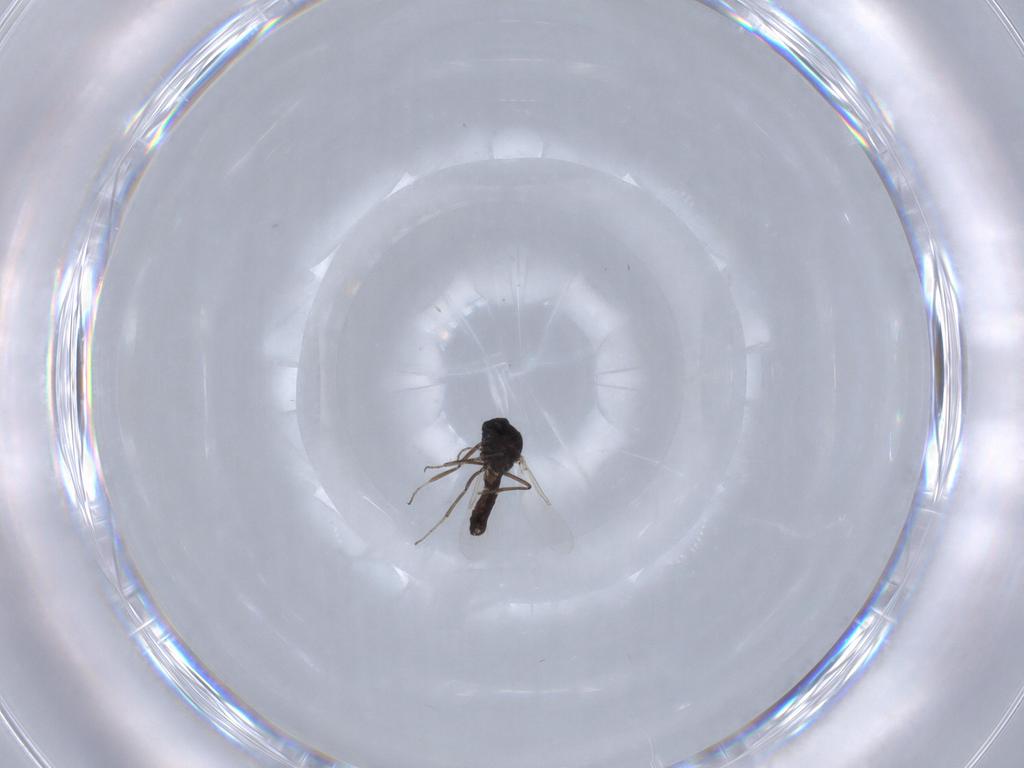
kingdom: Animalia
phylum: Arthropoda
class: Insecta
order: Diptera
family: Ceratopogonidae
